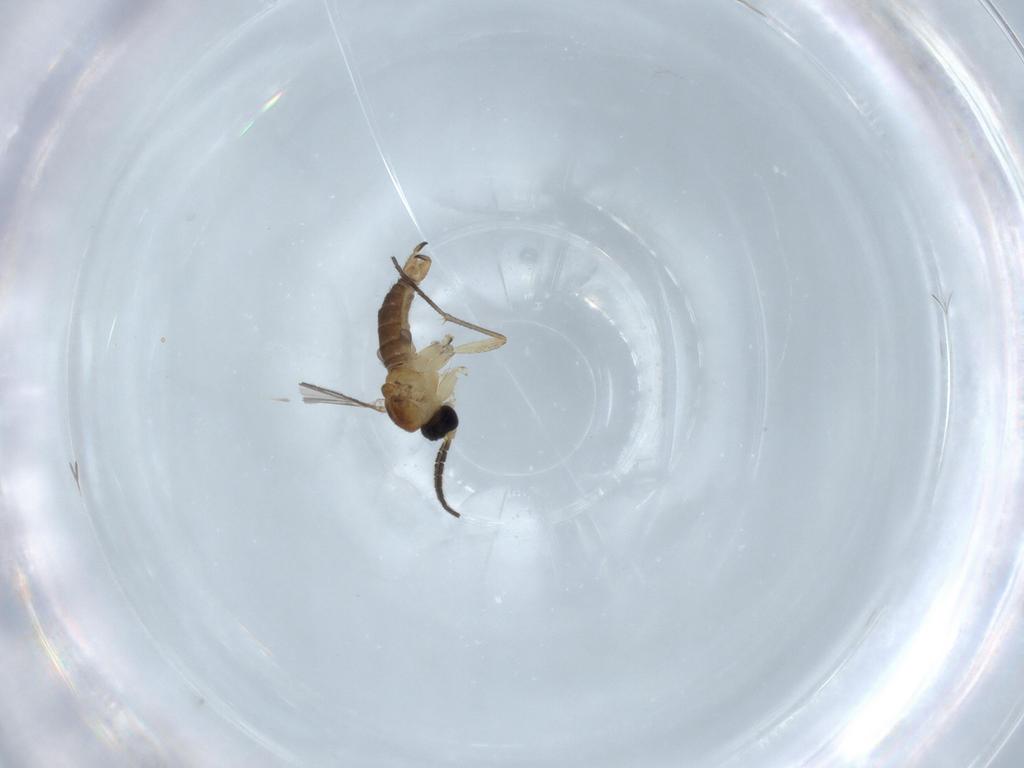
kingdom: Animalia
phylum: Arthropoda
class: Insecta
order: Diptera
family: Sciaridae
